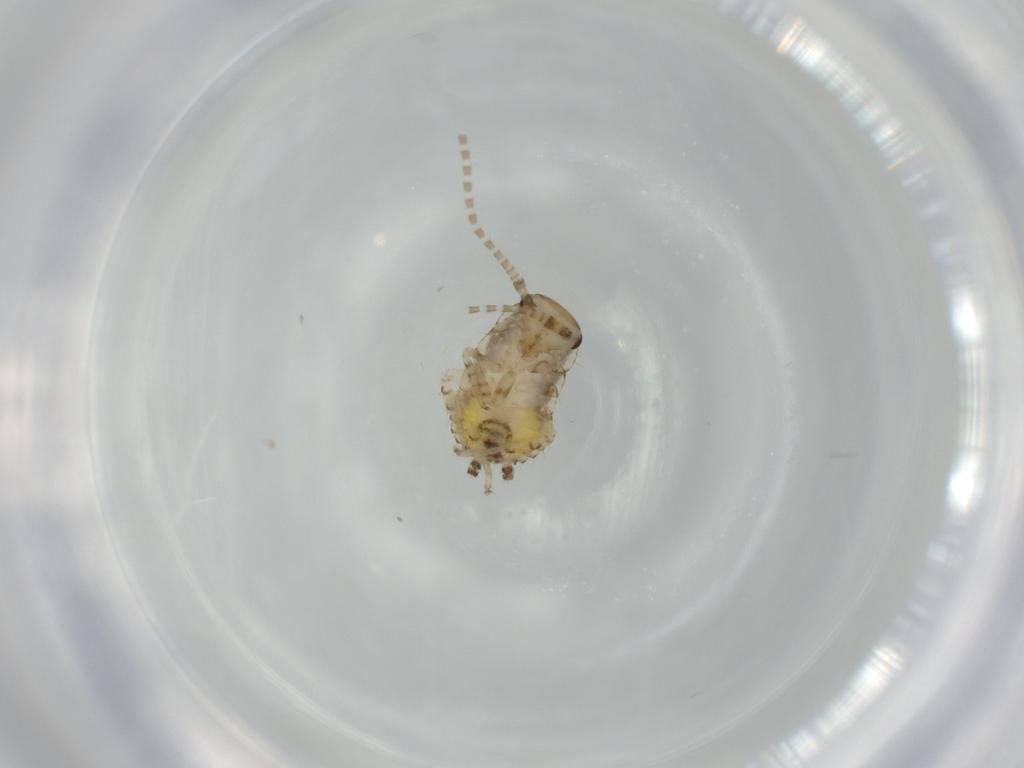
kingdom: Animalia
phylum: Arthropoda
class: Insecta
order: Blattodea
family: Ectobiidae
